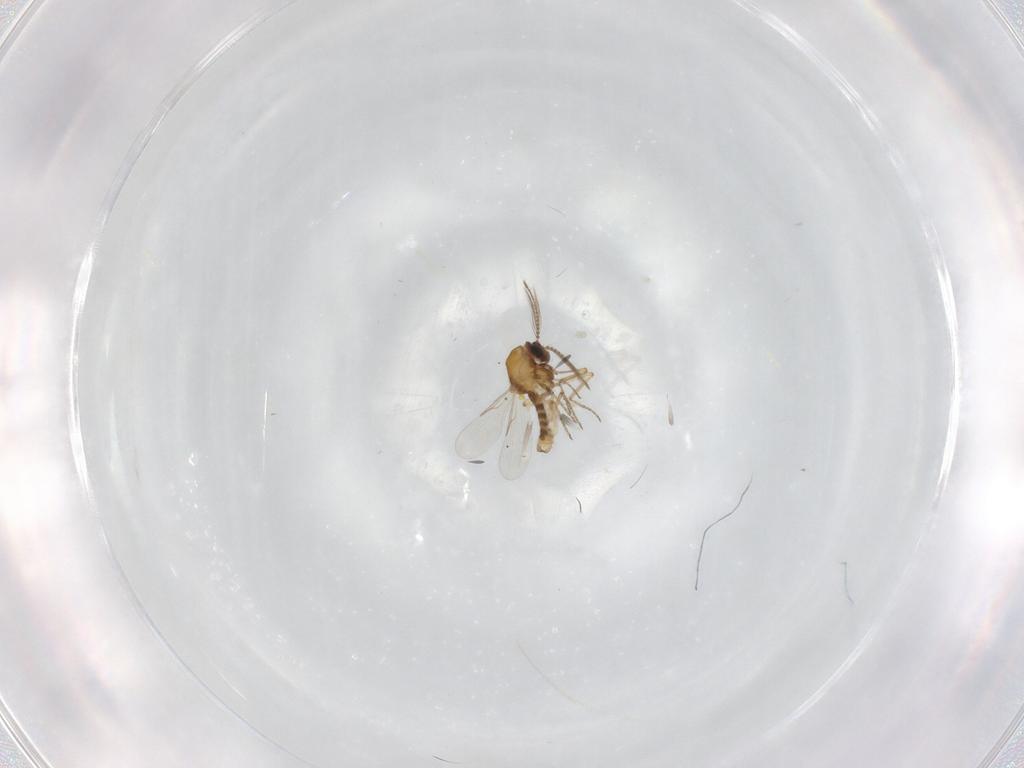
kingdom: Animalia
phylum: Arthropoda
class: Insecta
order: Diptera
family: Ceratopogonidae
